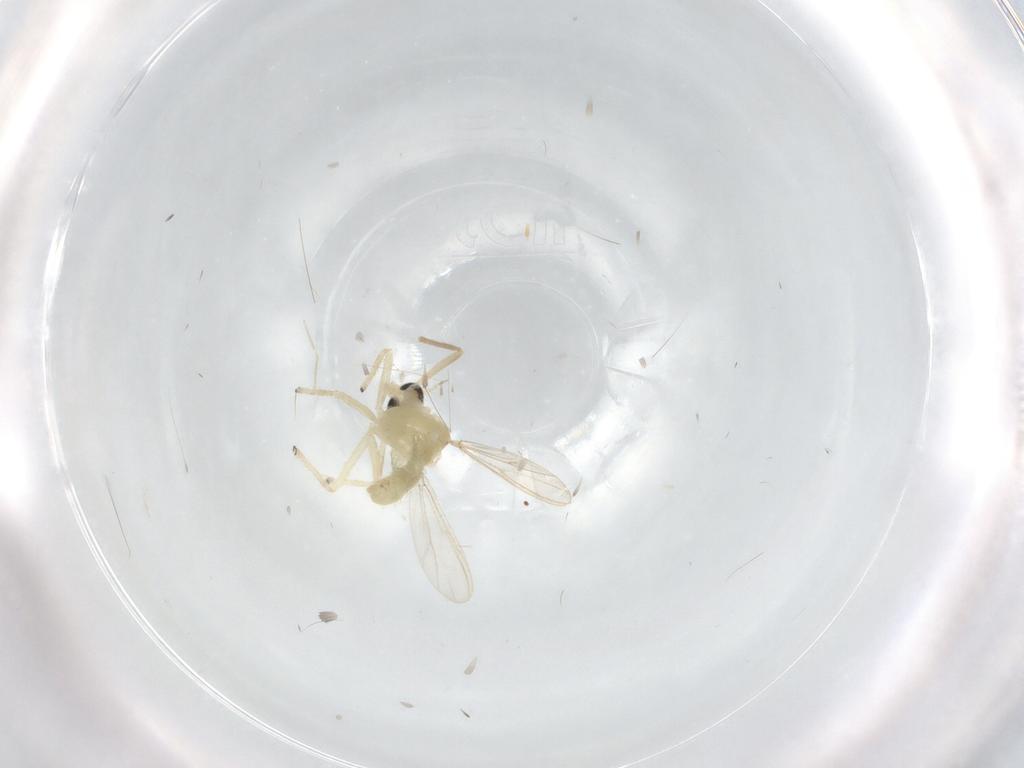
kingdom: Animalia
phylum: Arthropoda
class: Insecta
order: Diptera
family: Chironomidae
